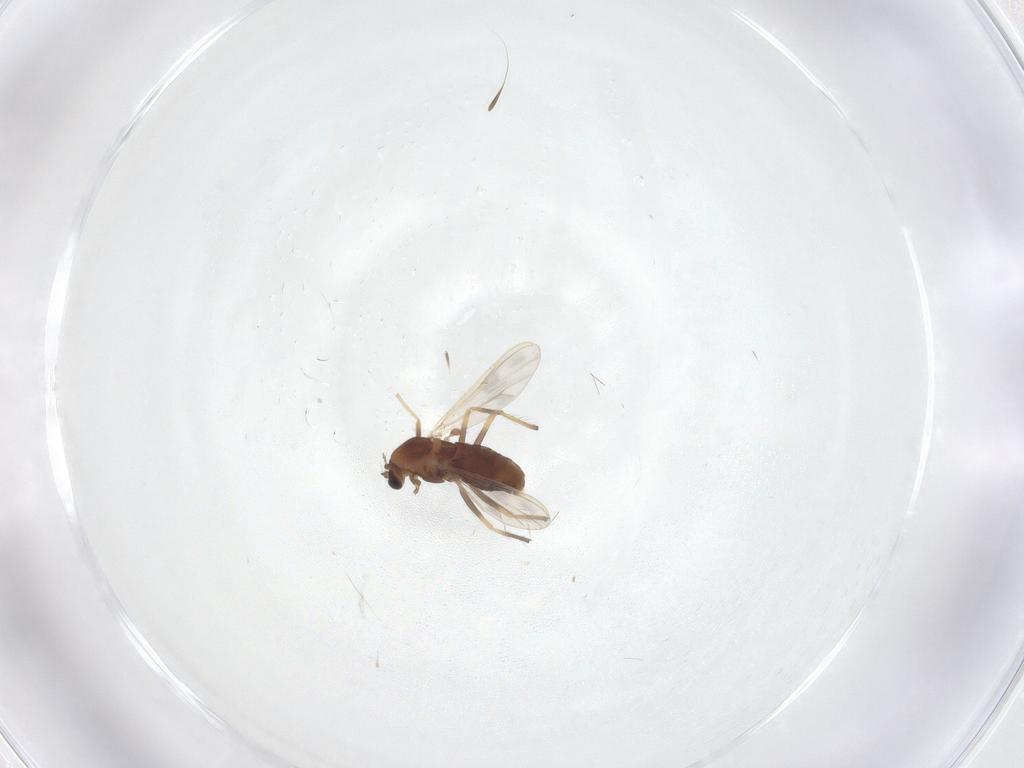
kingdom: Animalia
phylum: Arthropoda
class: Insecta
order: Diptera
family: Chironomidae
